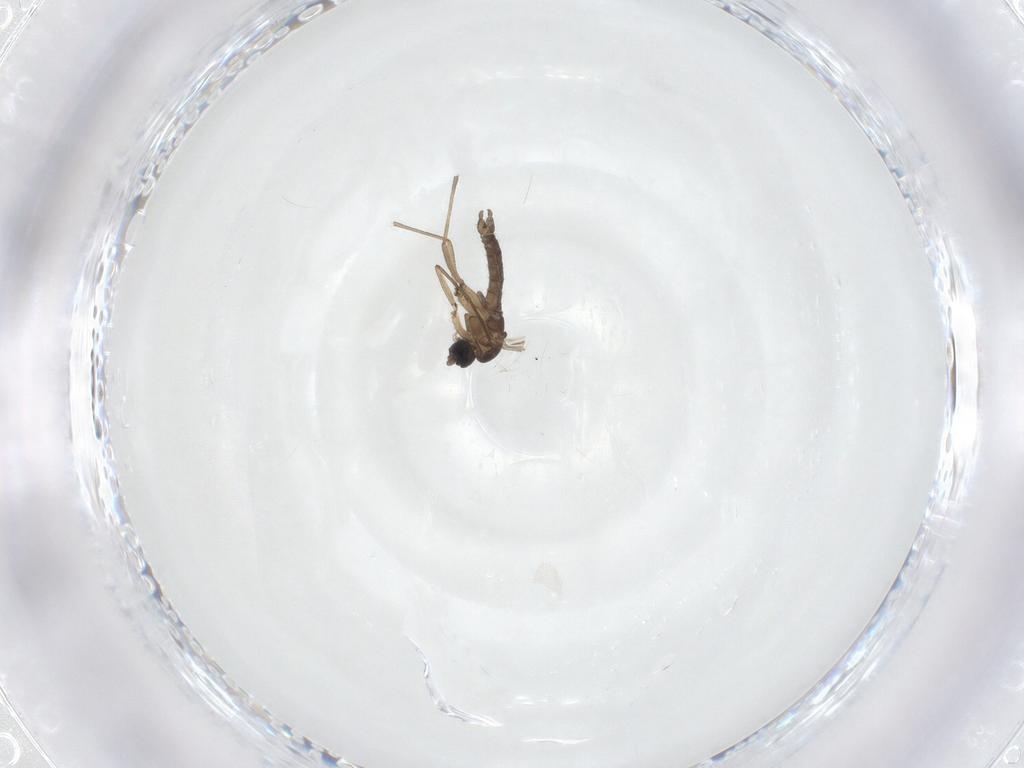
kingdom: Animalia
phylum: Arthropoda
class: Insecta
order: Diptera
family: Sciaridae
